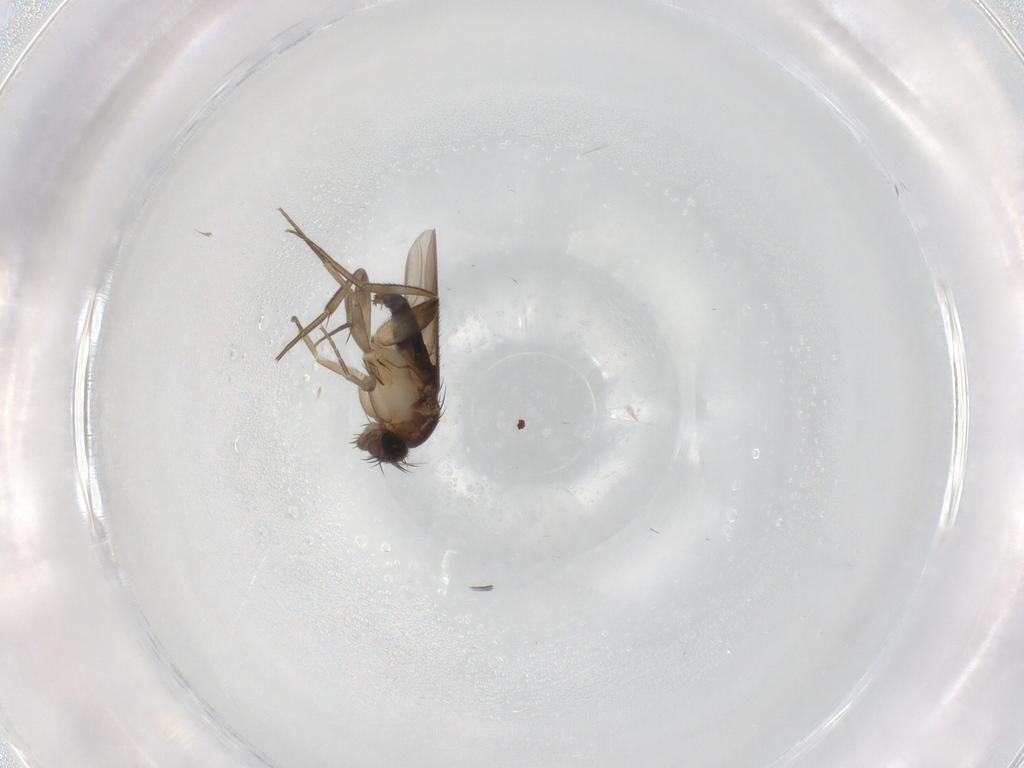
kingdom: Animalia
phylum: Arthropoda
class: Insecta
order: Diptera
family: Phoridae
